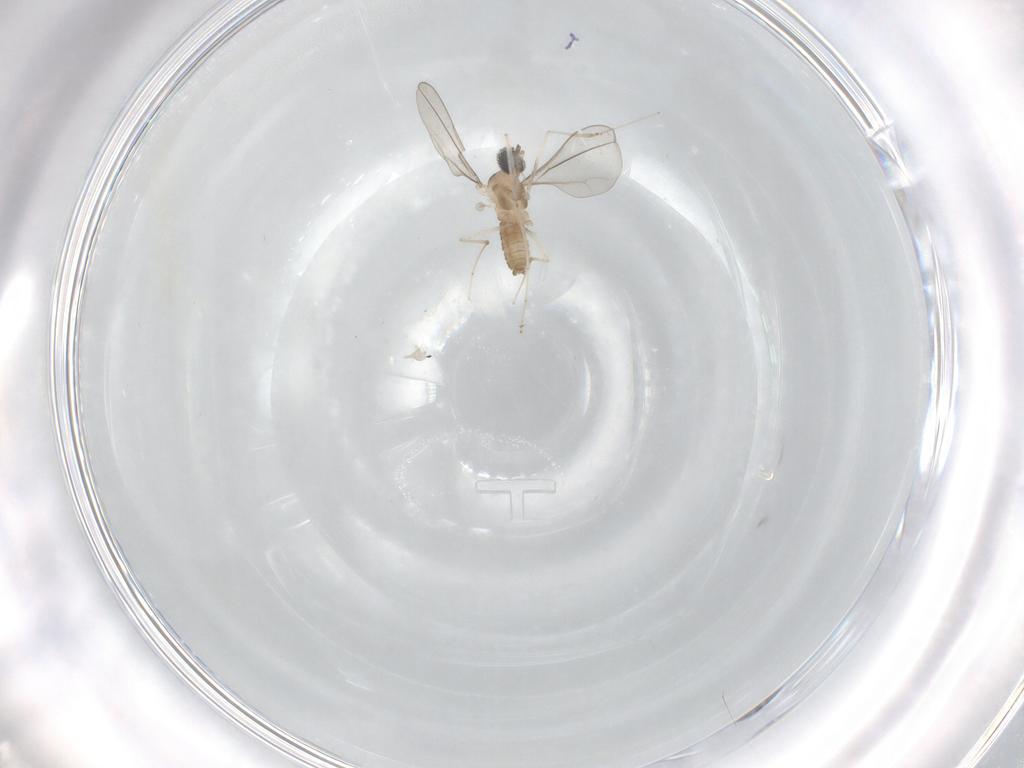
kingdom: Animalia
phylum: Arthropoda
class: Insecta
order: Diptera
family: Cecidomyiidae
